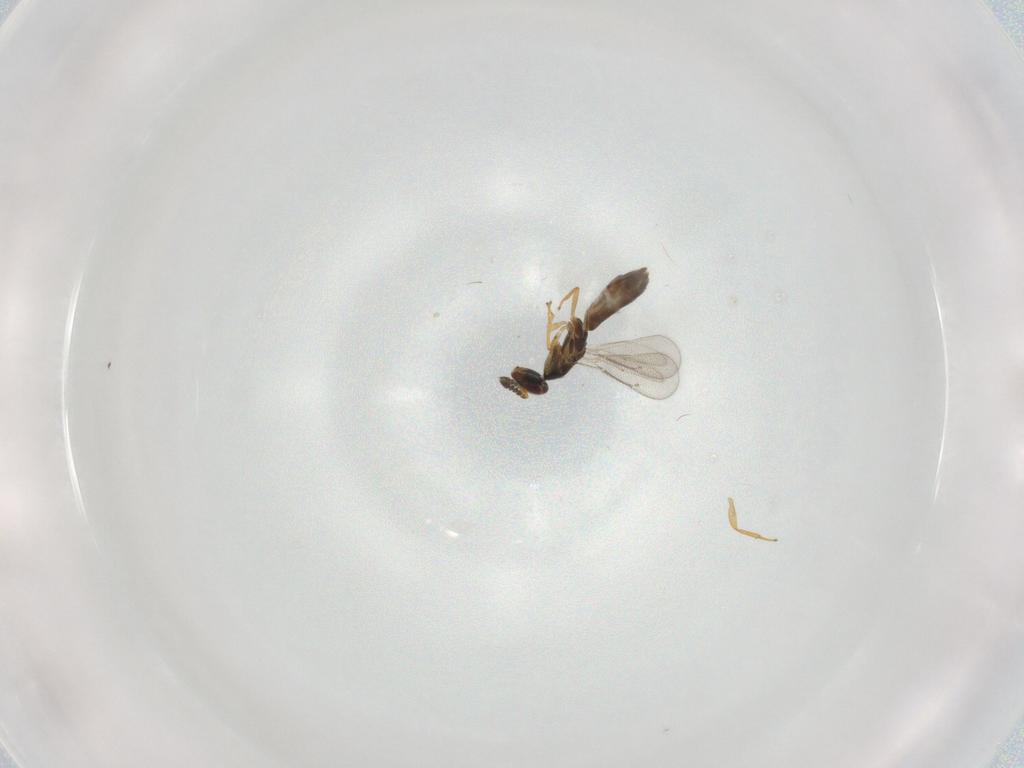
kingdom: Animalia
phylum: Arthropoda
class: Insecta
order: Hymenoptera
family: Eulophidae
